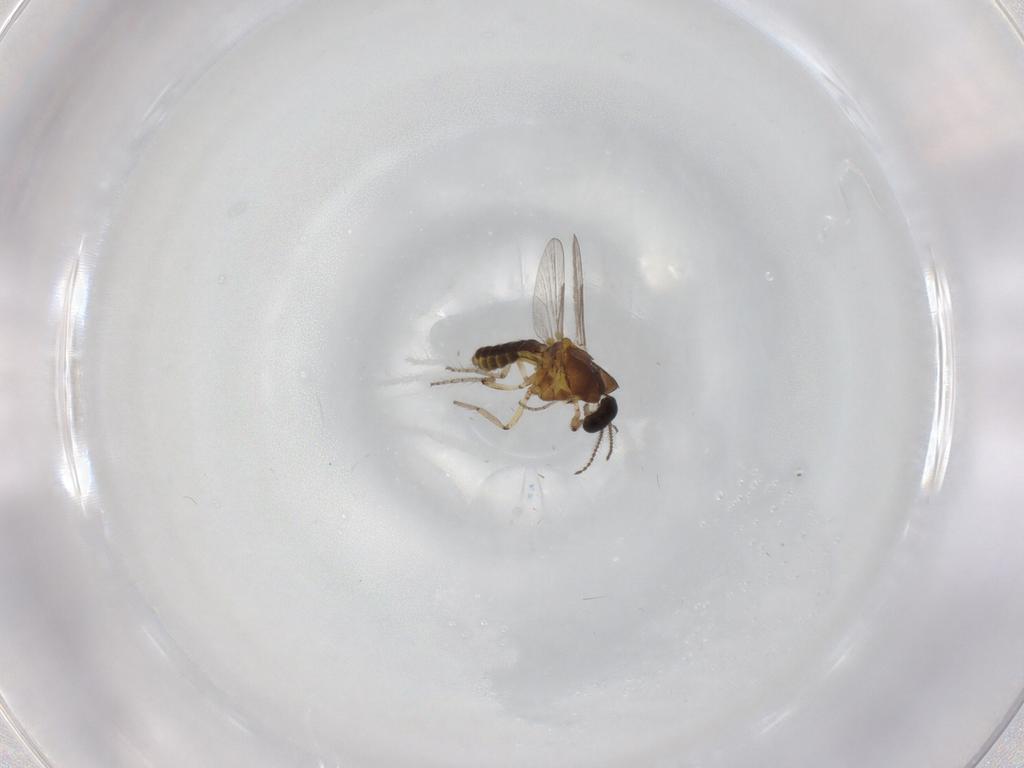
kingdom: Animalia
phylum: Arthropoda
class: Insecta
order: Diptera
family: Ceratopogonidae
